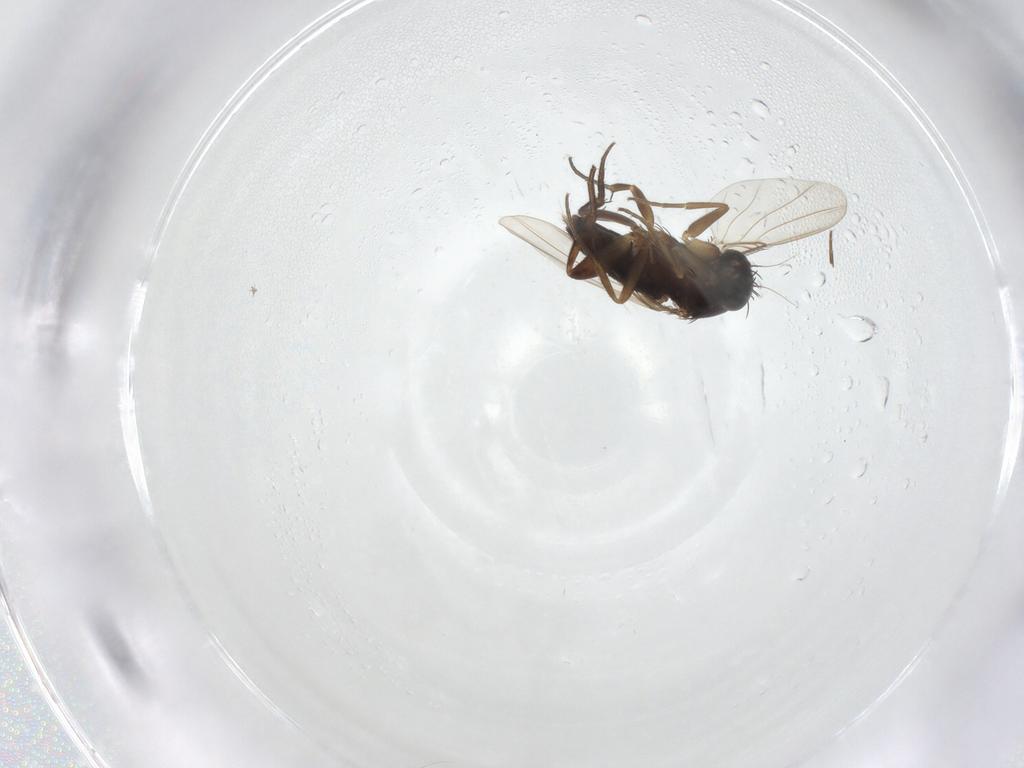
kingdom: Animalia
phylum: Arthropoda
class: Insecta
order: Diptera
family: Phoridae
